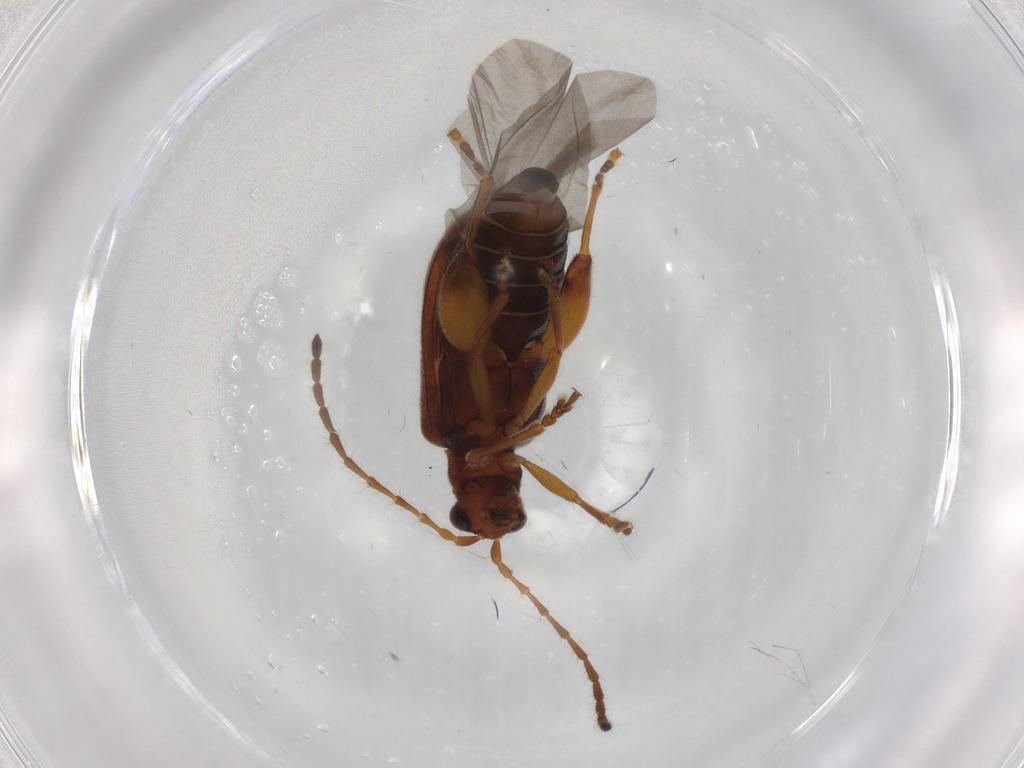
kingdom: Animalia
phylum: Arthropoda
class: Insecta
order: Coleoptera
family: Chrysomelidae
